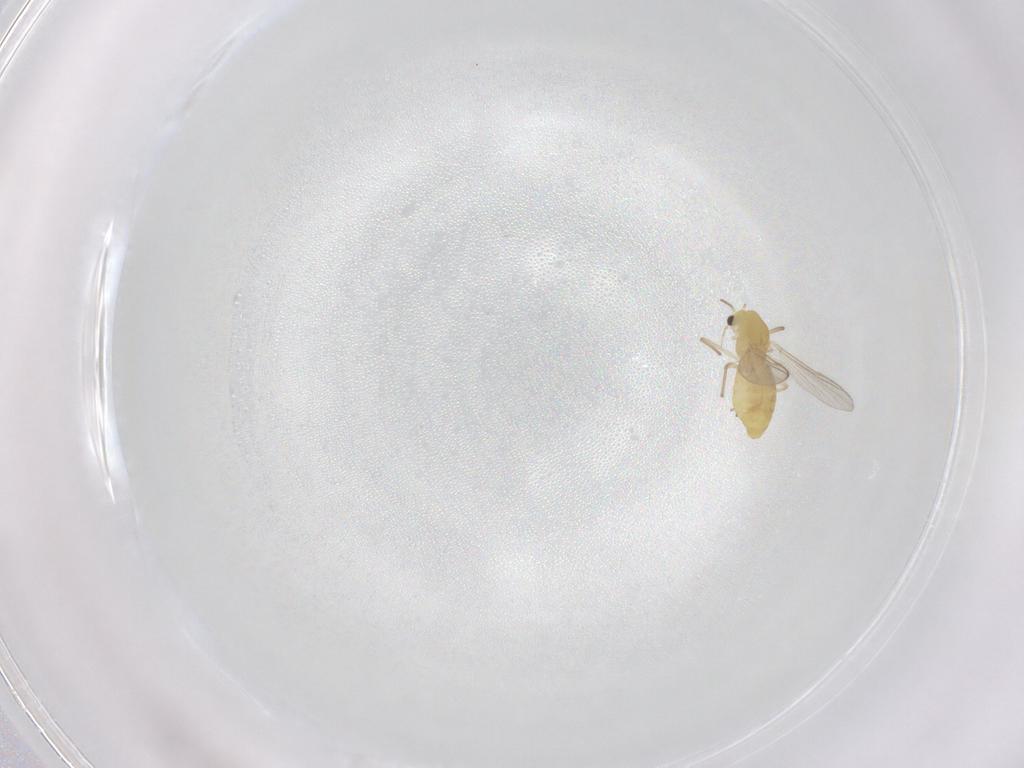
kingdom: Animalia
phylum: Arthropoda
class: Insecta
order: Diptera
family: Chironomidae
